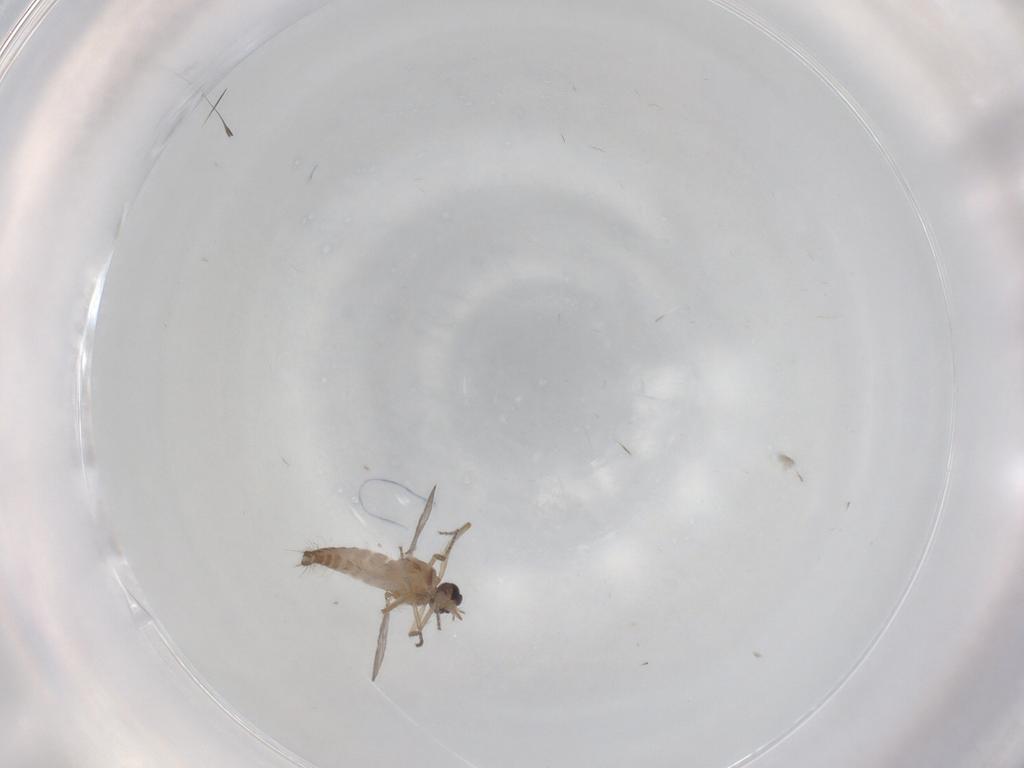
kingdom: Animalia
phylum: Arthropoda
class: Insecta
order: Diptera
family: Ceratopogonidae
